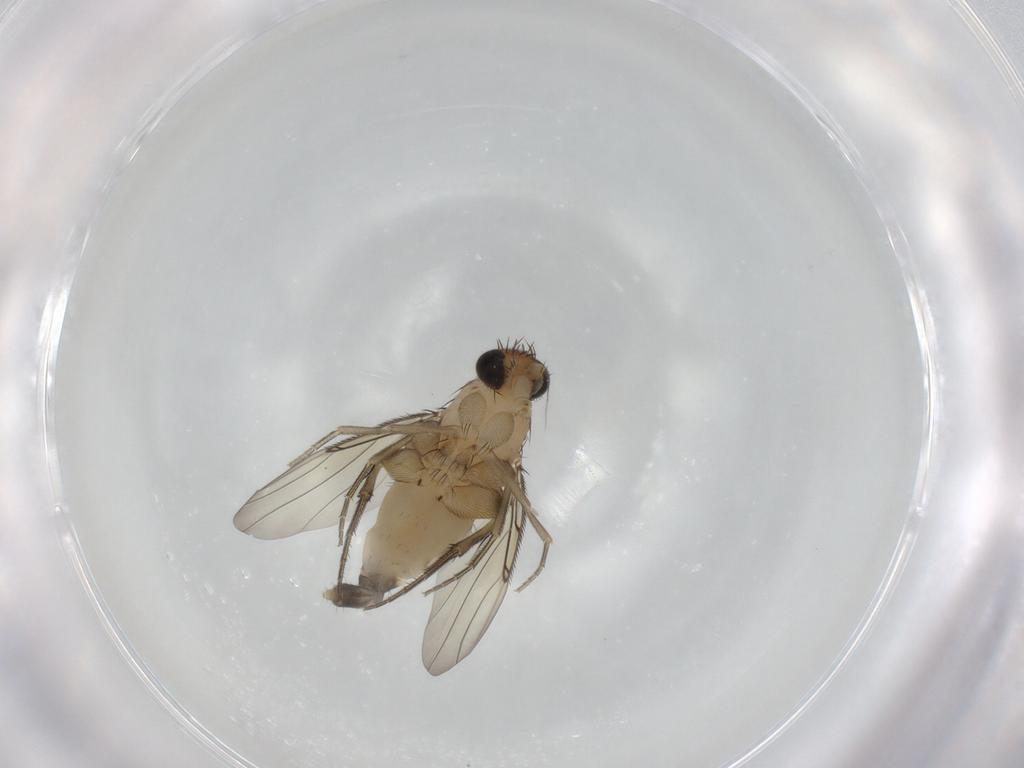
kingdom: Animalia
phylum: Arthropoda
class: Insecta
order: Diptera
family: Phoridae
